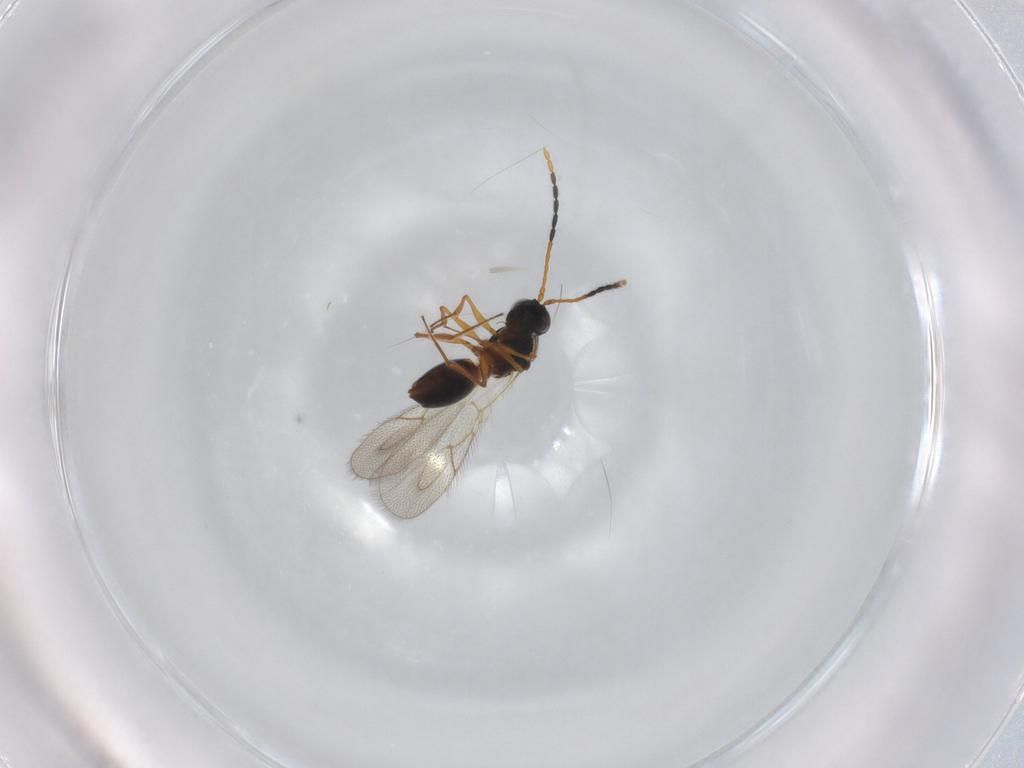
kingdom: Animalia
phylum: Arthropoda
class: Insecta
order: Hymenoptera
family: Figitidae
